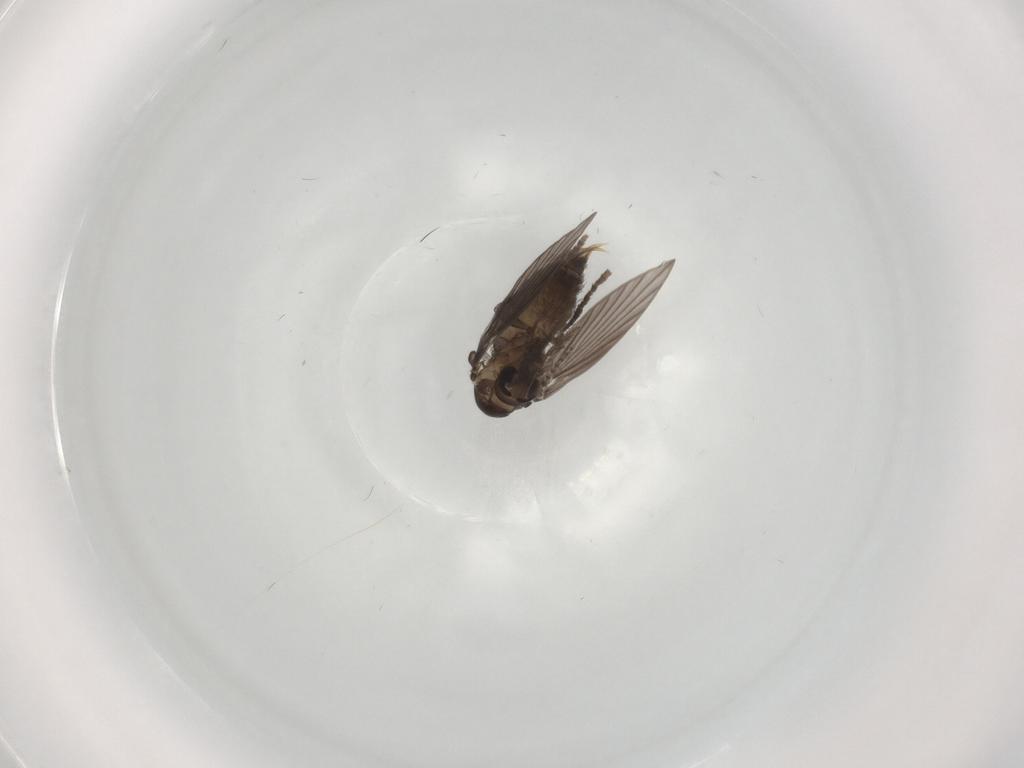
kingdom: Animalia
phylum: Arthropoda
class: Insecta
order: Diptera
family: Psychodidae
